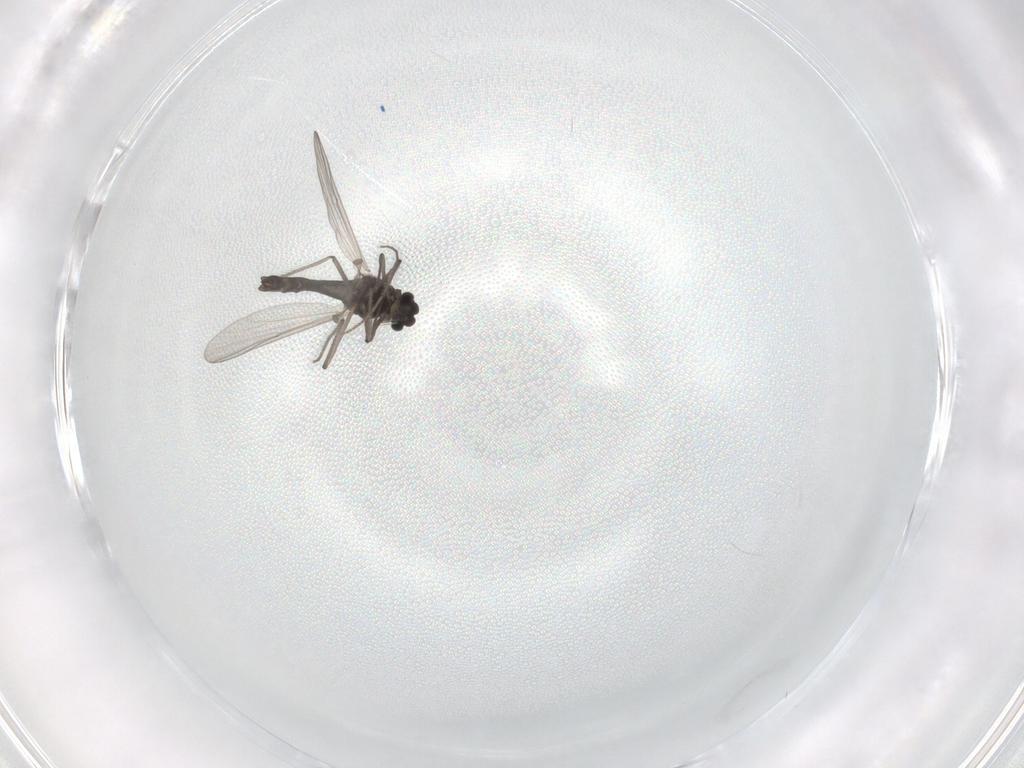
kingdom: Animalia
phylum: Arthropoda
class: Insecta
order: Diptera
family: Chironomidae
